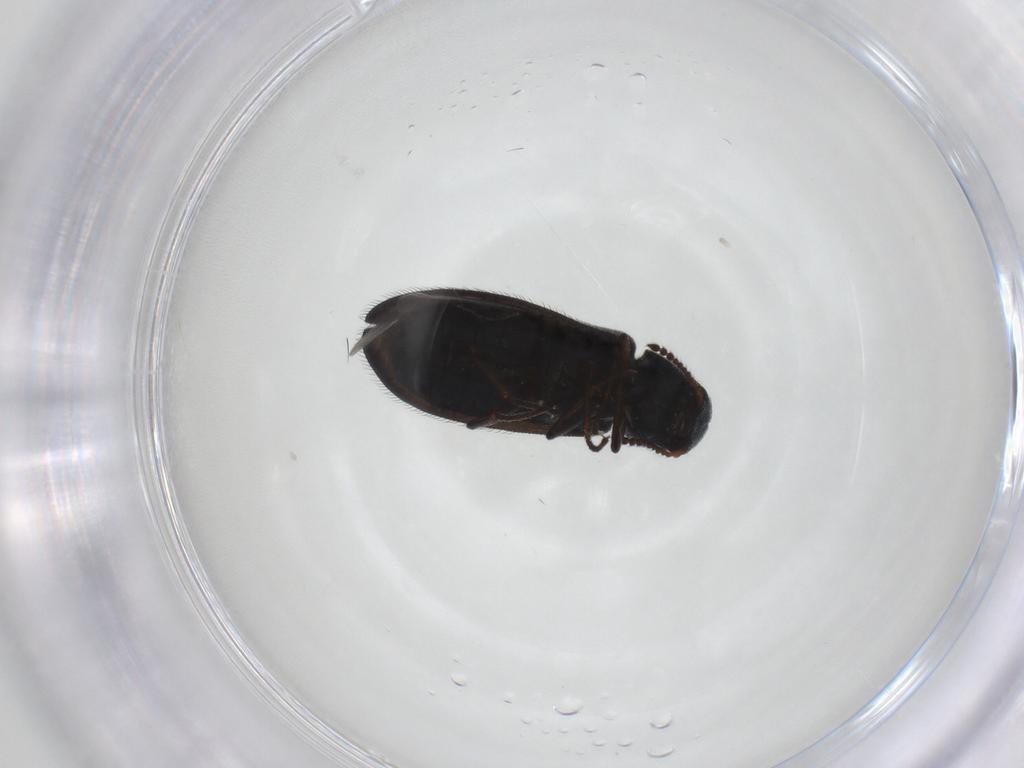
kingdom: Animalia
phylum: Arthropoda
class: Insecta
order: Coleoptera
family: Melyridae
